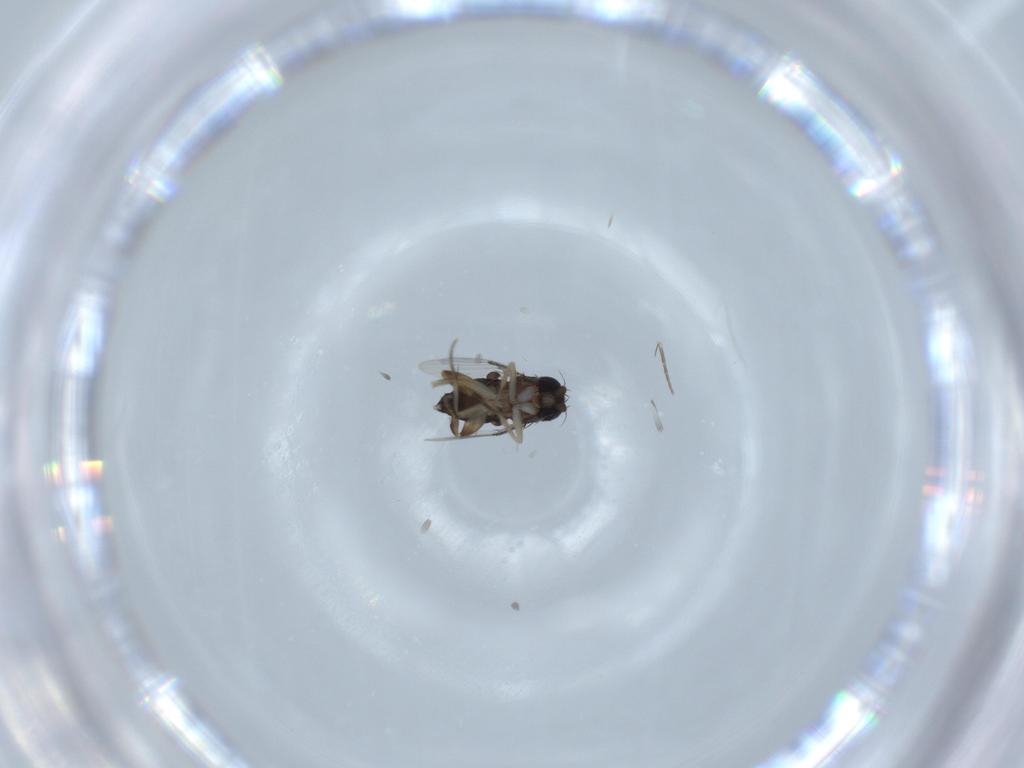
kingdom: Animalia
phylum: Arthropoda
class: Insecta
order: Diptera
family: Phoridae
